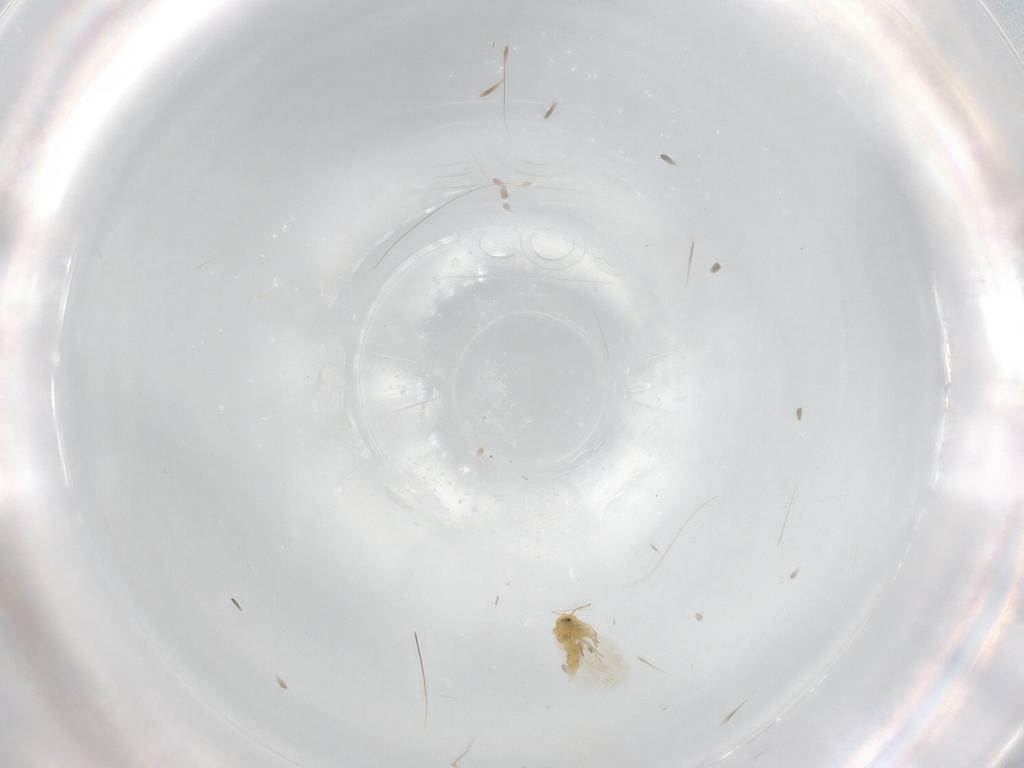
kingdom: Animalia
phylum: Arthropoda
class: Insecta
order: Hemiptera
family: Aleyrodidae
